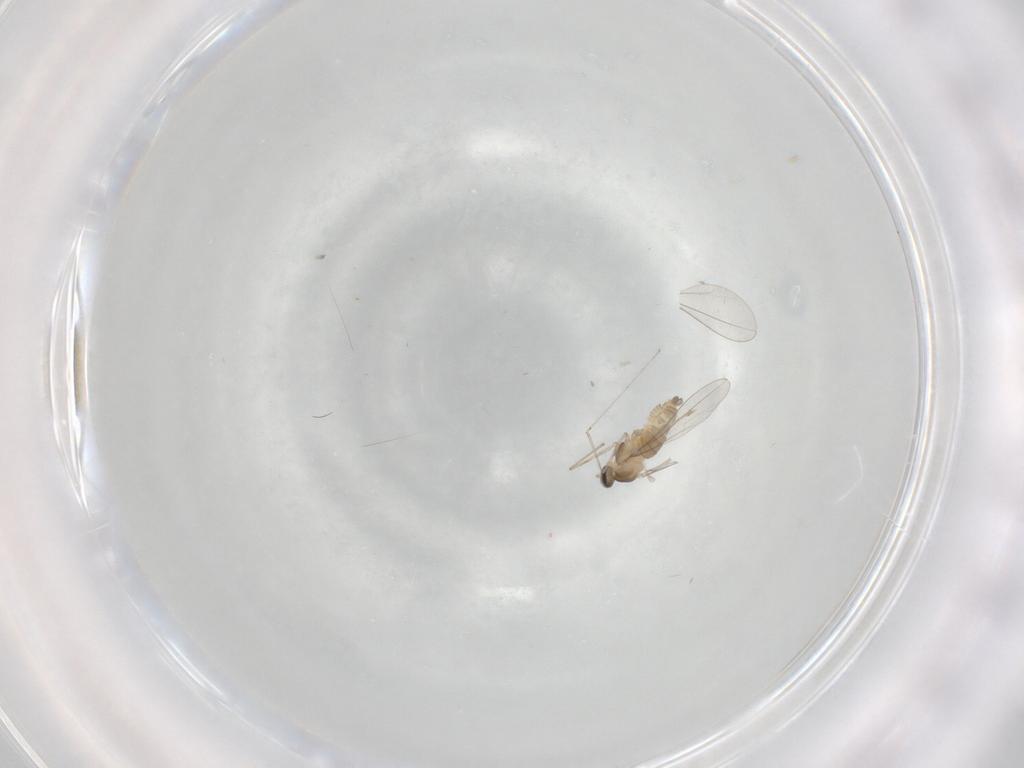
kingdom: Animalia
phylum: Arthropoda
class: Insecta
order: Diptera
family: Cecidomyiidae
